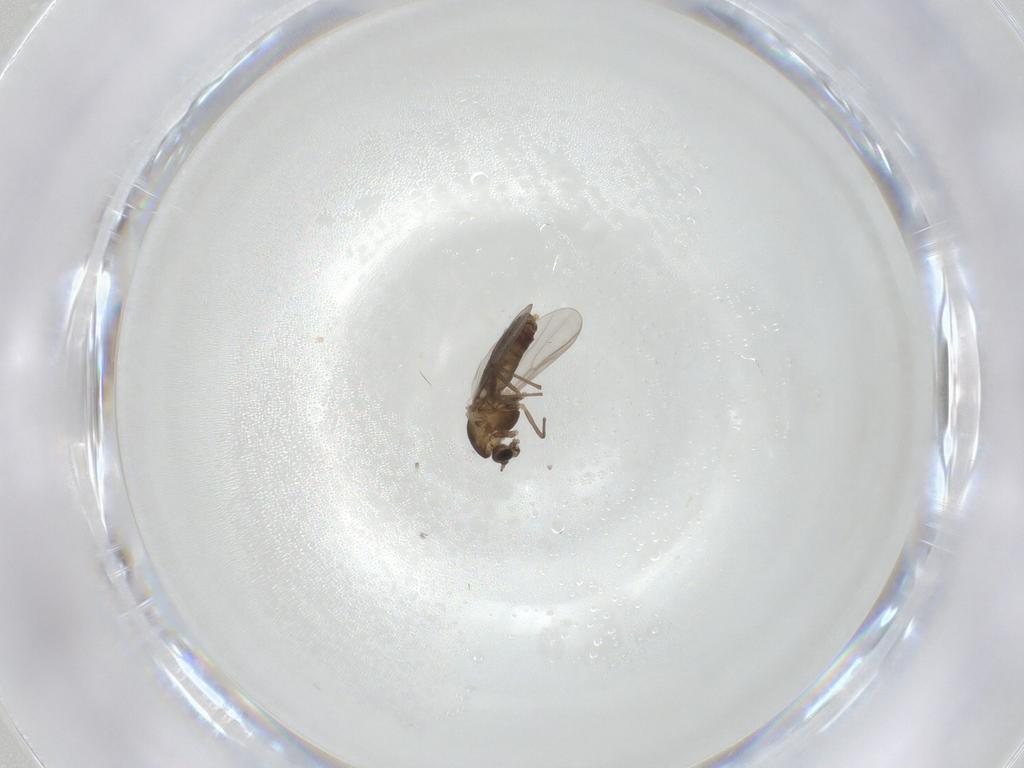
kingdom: Animalia
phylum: Arthropoda
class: Insecta
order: Diptera
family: Chironomidae
